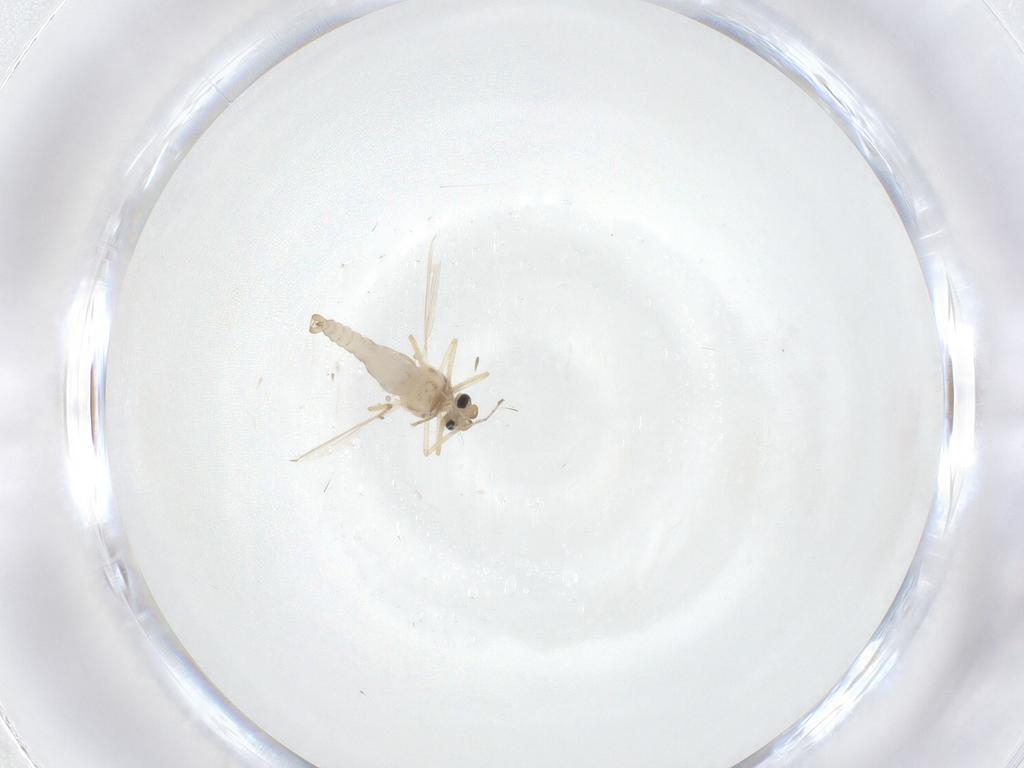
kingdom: Animalia
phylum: Arthropoda
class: Insecta
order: Diptera
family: Ceratopogonidae
